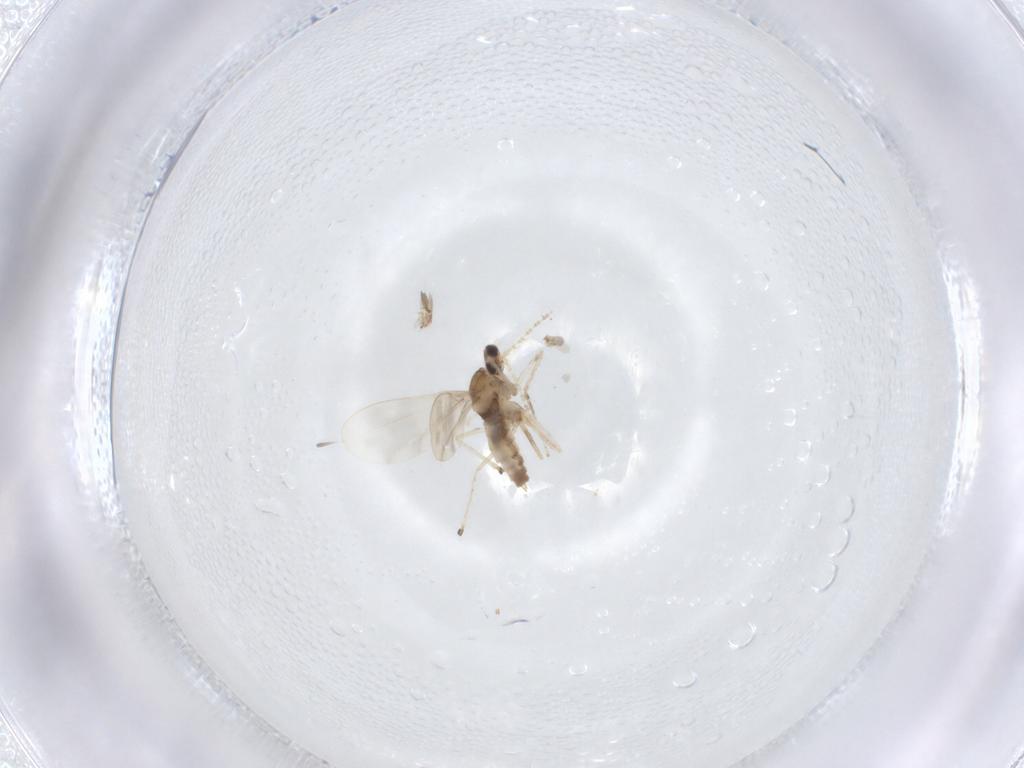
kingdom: Animalia
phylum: Arthropoda
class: Insecta
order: Diptera
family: Cecidomyiidae
